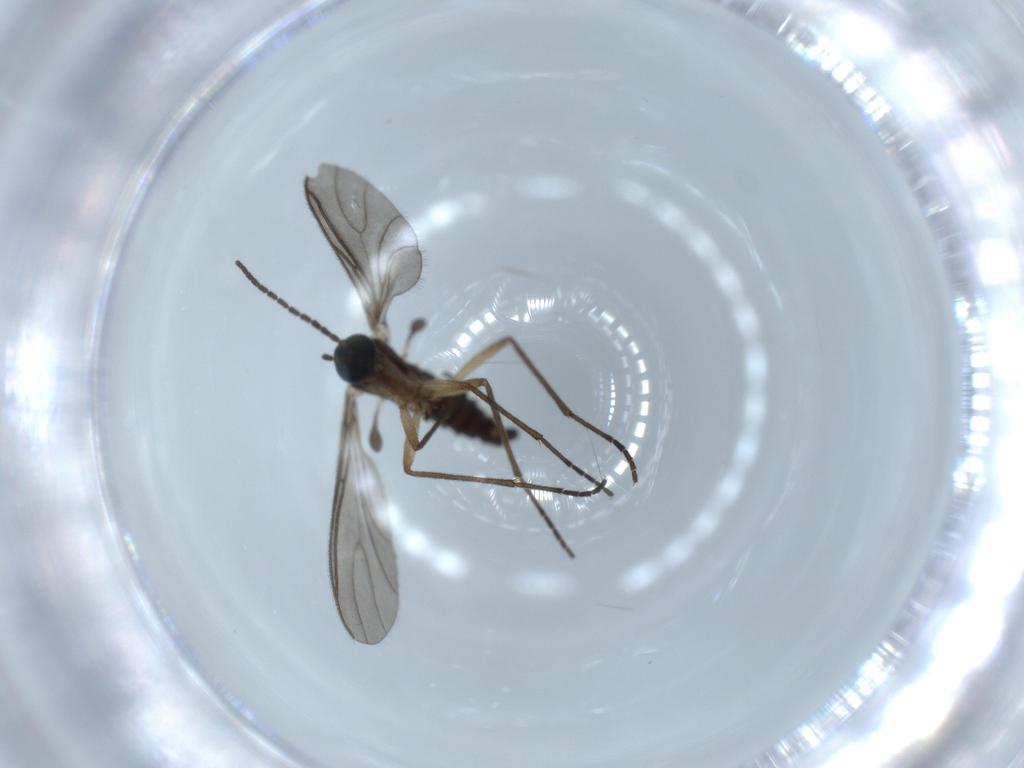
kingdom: Animalia
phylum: Arthropoda
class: Insecta
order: Diptera
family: Sciaridae
